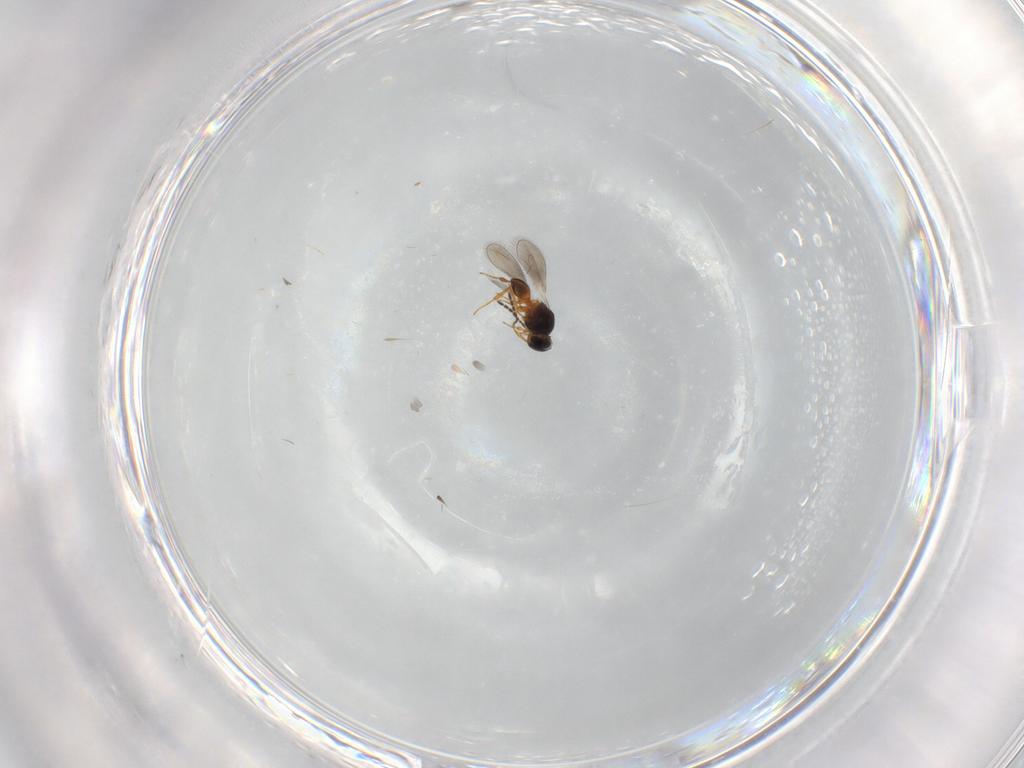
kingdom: Animalia
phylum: Arthropoda
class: Insecta
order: Hymenoptera
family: Platygastridae
